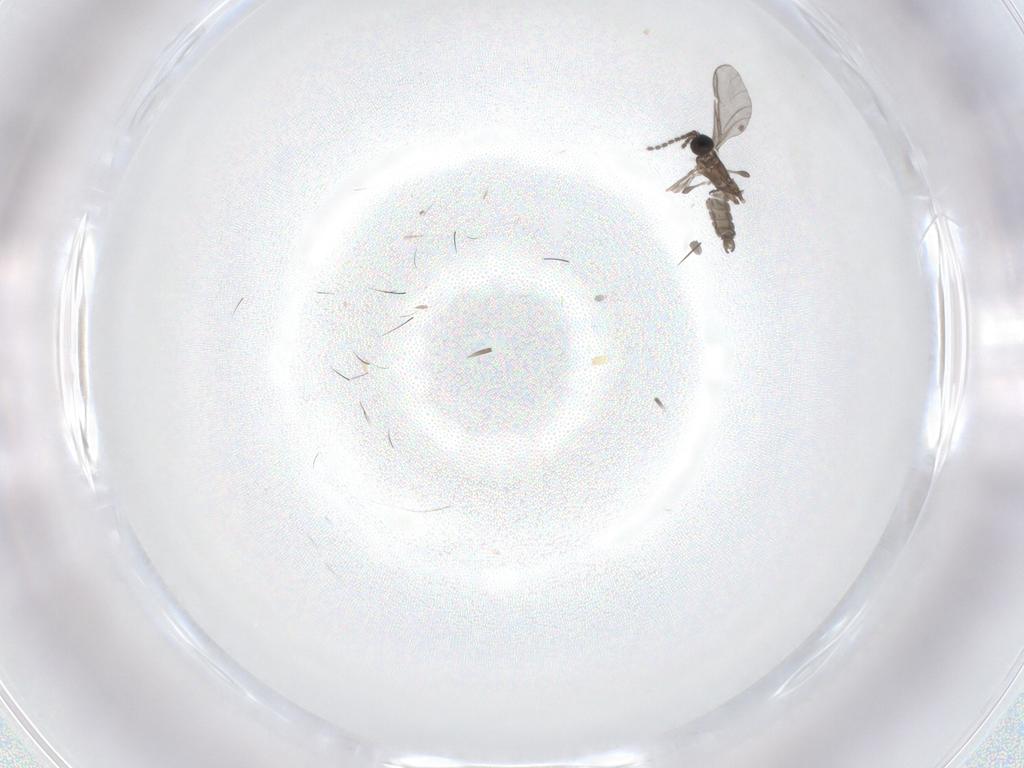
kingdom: Animalia
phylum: Arthropoda
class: Insecta
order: Diptera
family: Sciaridae
